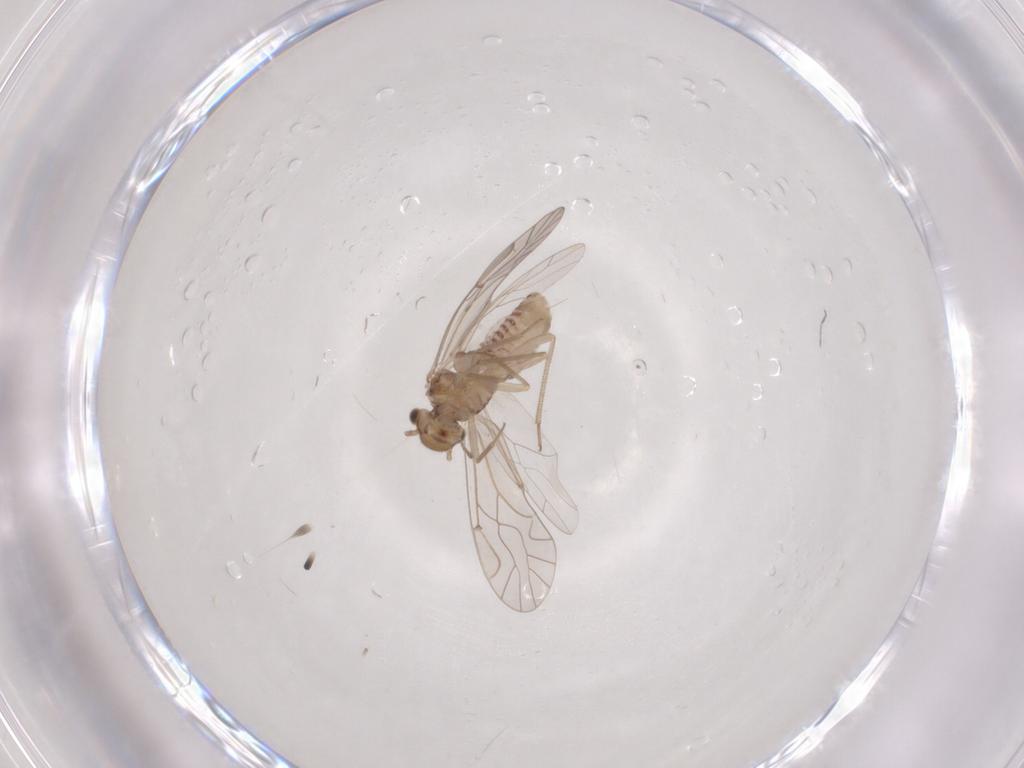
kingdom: Animalia
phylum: Arthropoda
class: Insecta
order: Psocodea
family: Lachesillidae
